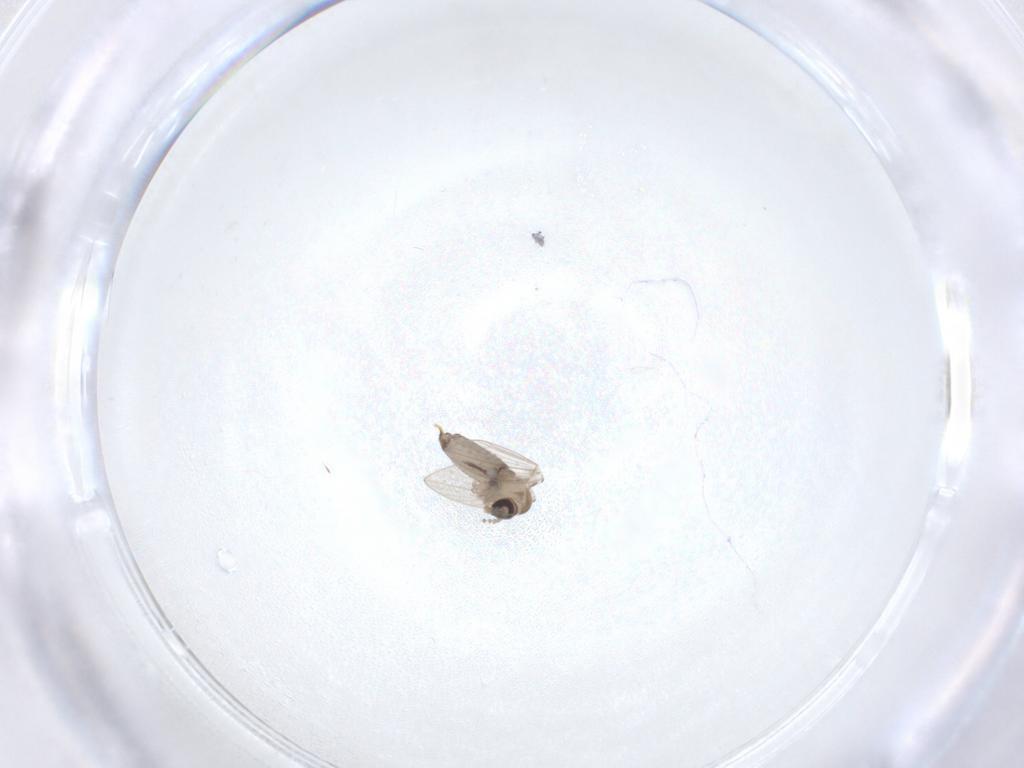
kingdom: Animalia
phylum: Arthropoda
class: Insecta
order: Diptera
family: Psychodidae
